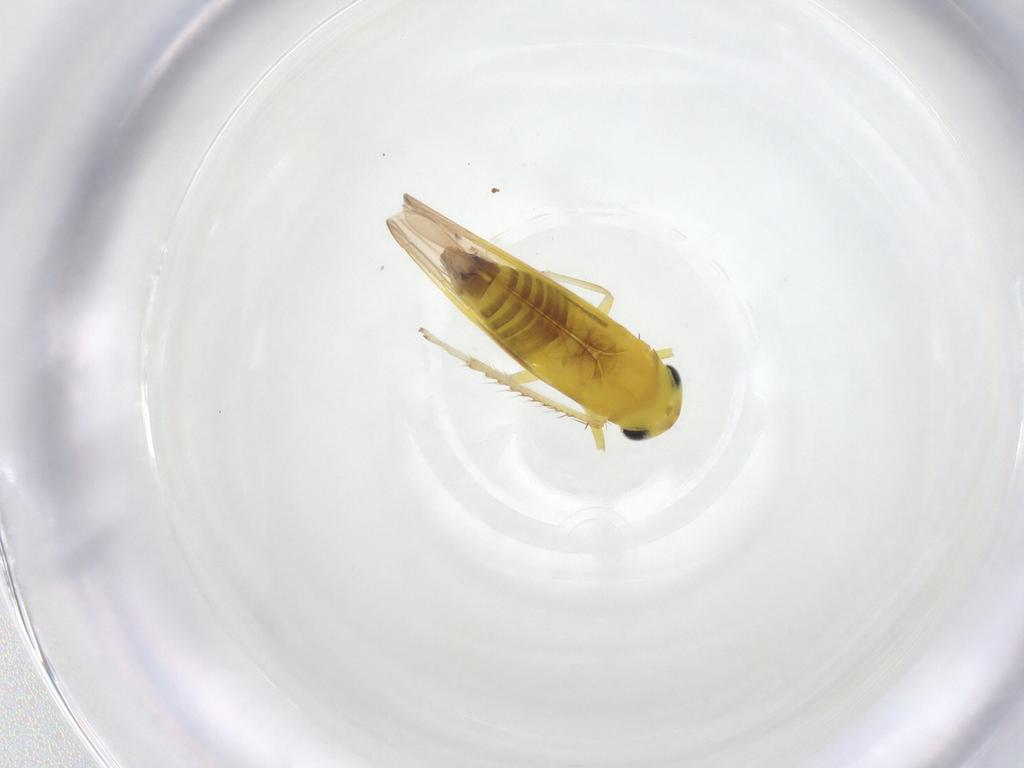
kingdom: Animalia
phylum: Arthropoda
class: Insecta
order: Hemiptera
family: Cicadellidae
